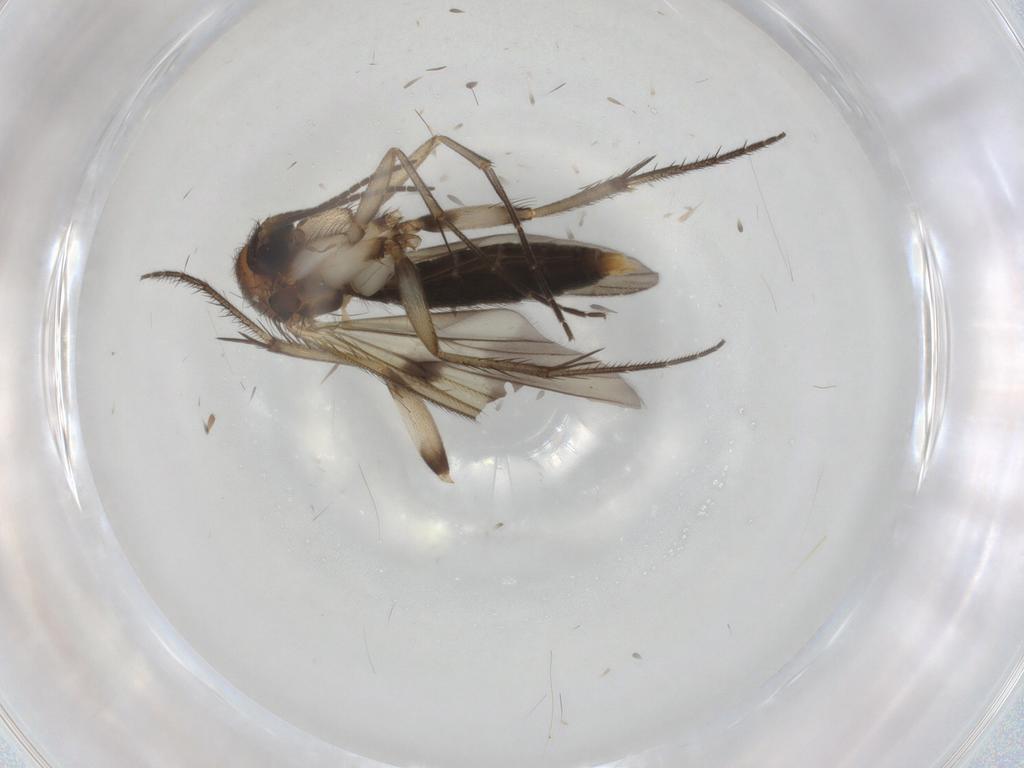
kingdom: Animalia
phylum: Arthropoda
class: Insecta
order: Diptera
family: Mycetophilidae
